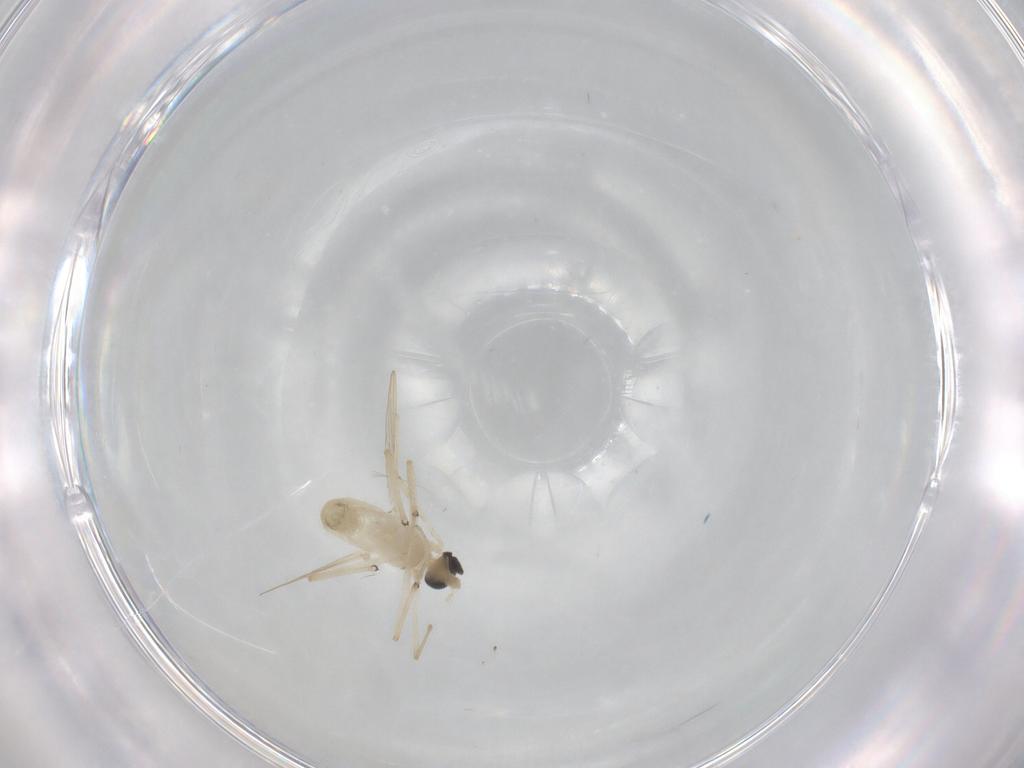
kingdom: Animalia
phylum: Arthropoda
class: Insecta
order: Diptera
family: Chironomidae
